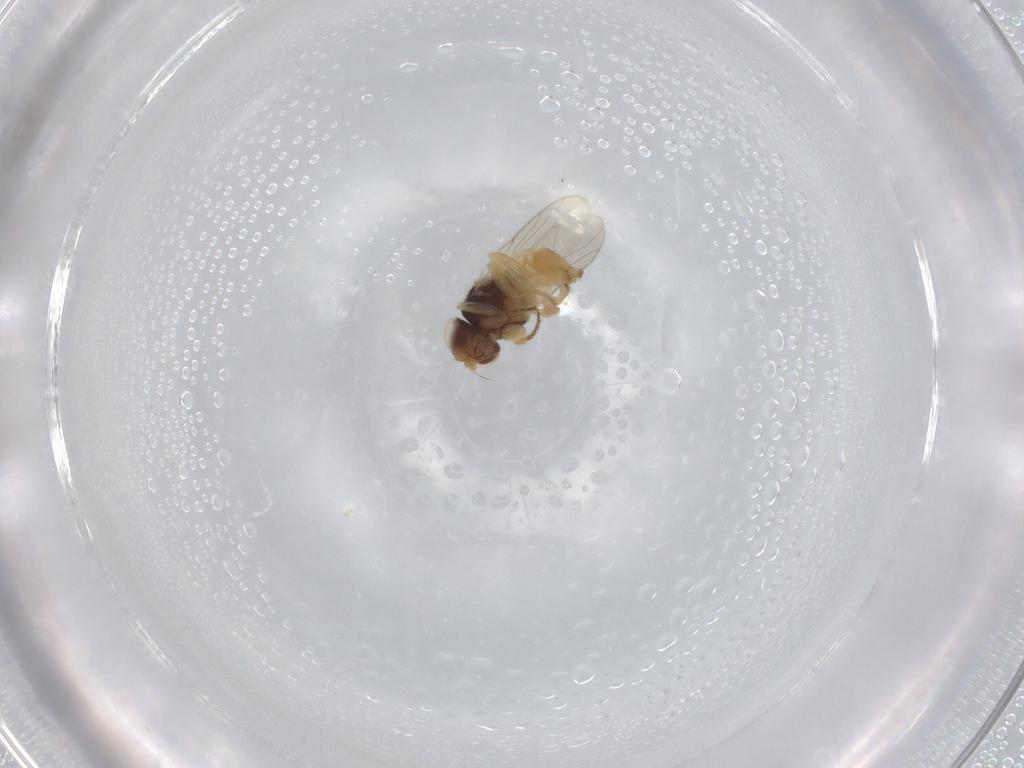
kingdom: Animalia
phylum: Arthropoda
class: Insecta
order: Diptera
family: Chloropidae
